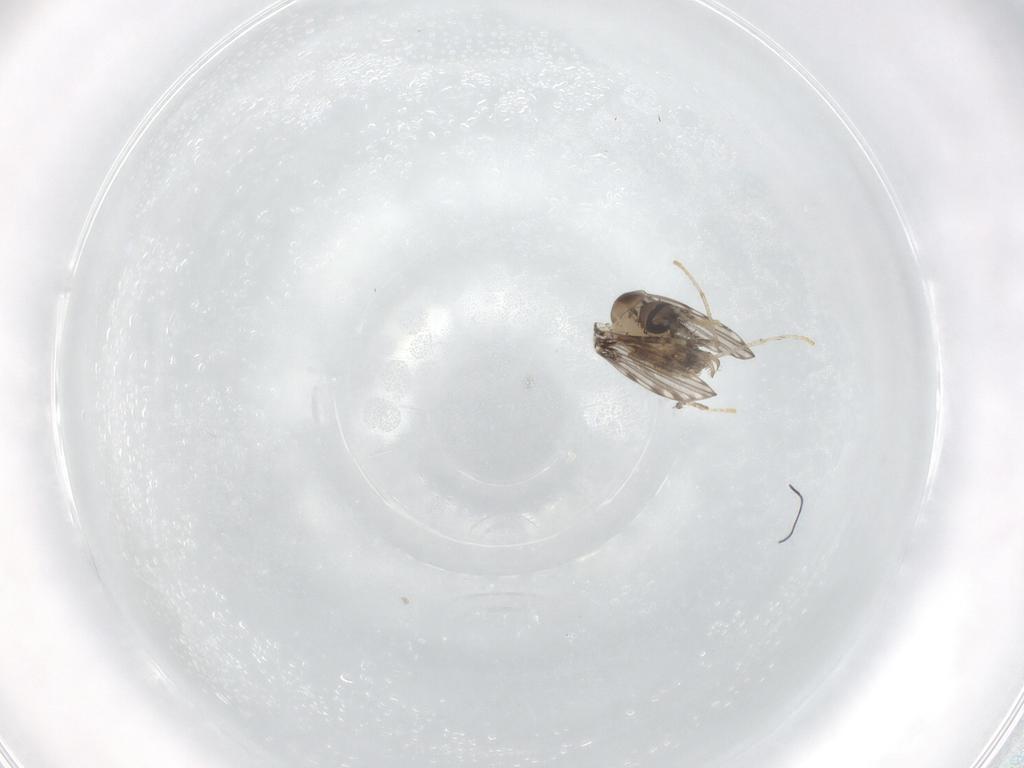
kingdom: Animalia
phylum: Arthropoda
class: Insecta
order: Diptera
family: Psychodidae
